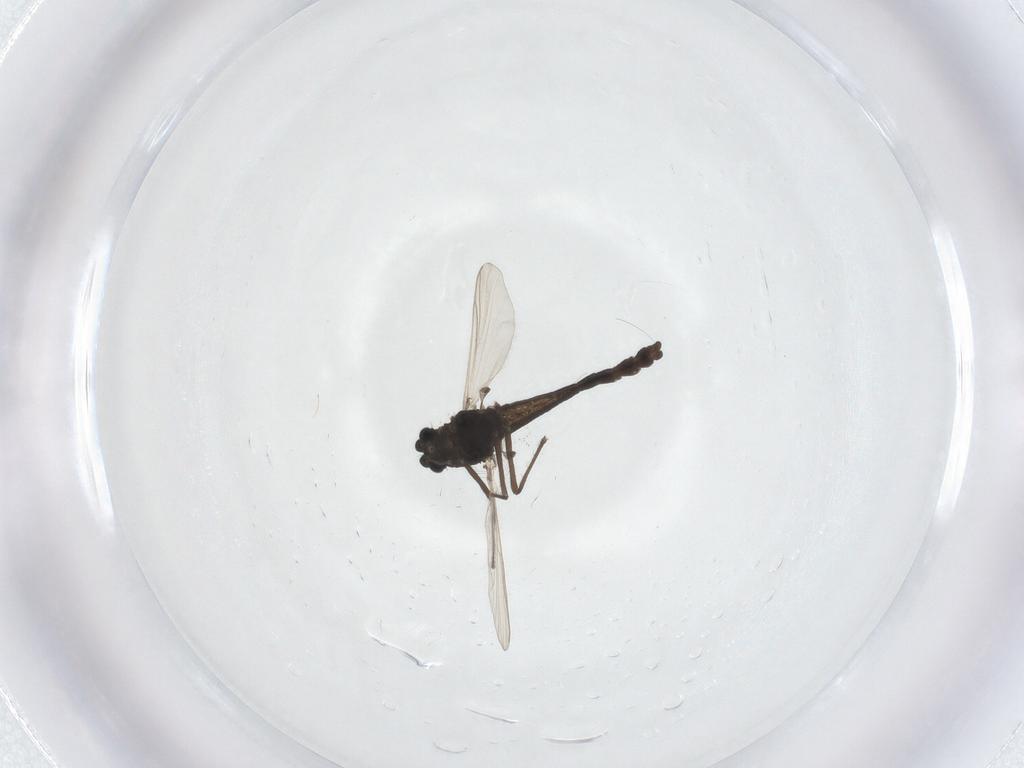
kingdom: Animalia
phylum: Arthropoda
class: Insecta
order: Diptera
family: Chironomidae
